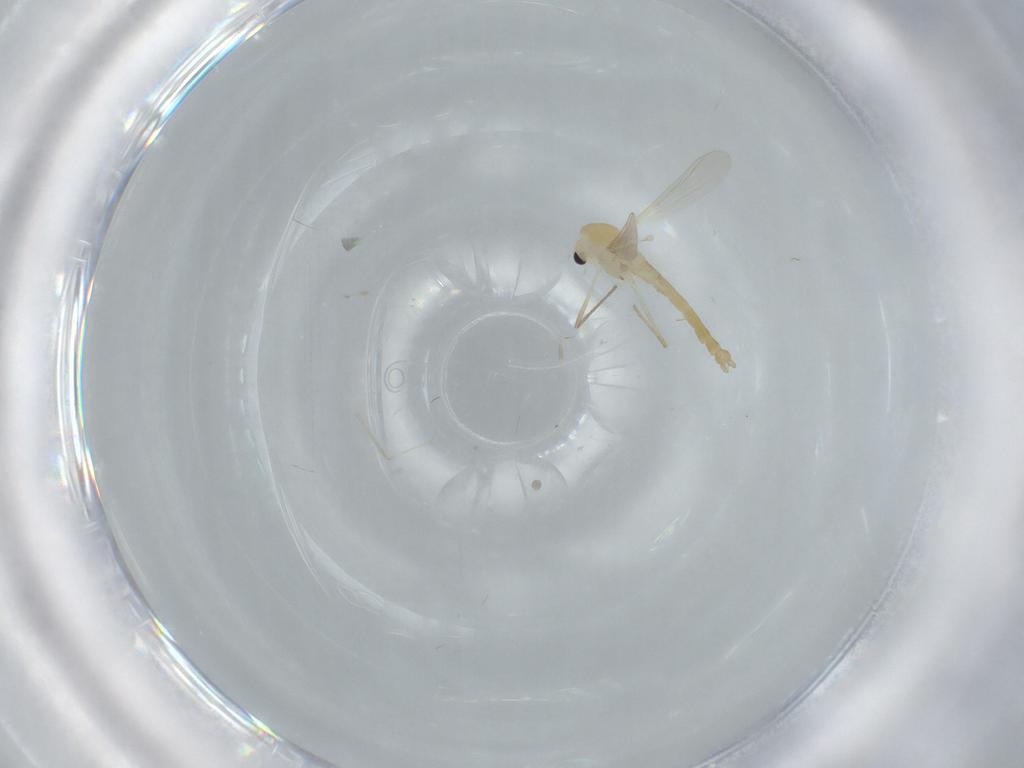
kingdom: Animalia
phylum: Arthropoda
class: Insecta
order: Diptera
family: Chironomidae
